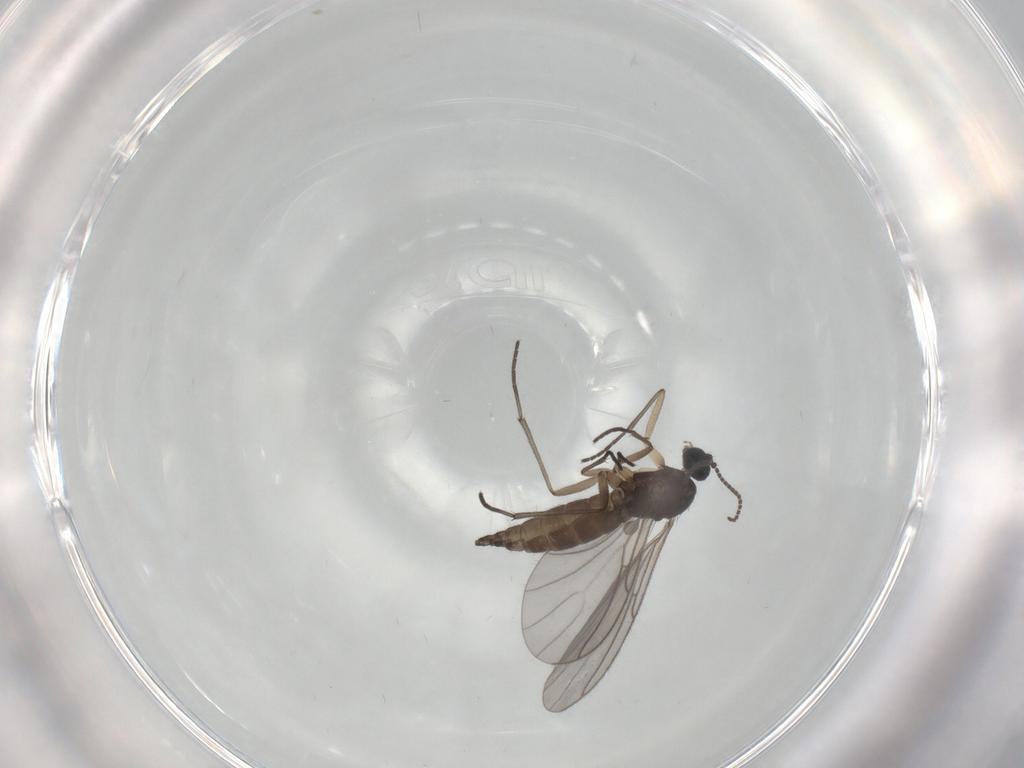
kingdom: Animalia
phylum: Arthropoda
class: Insecta
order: Diptera
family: Sciaridae
